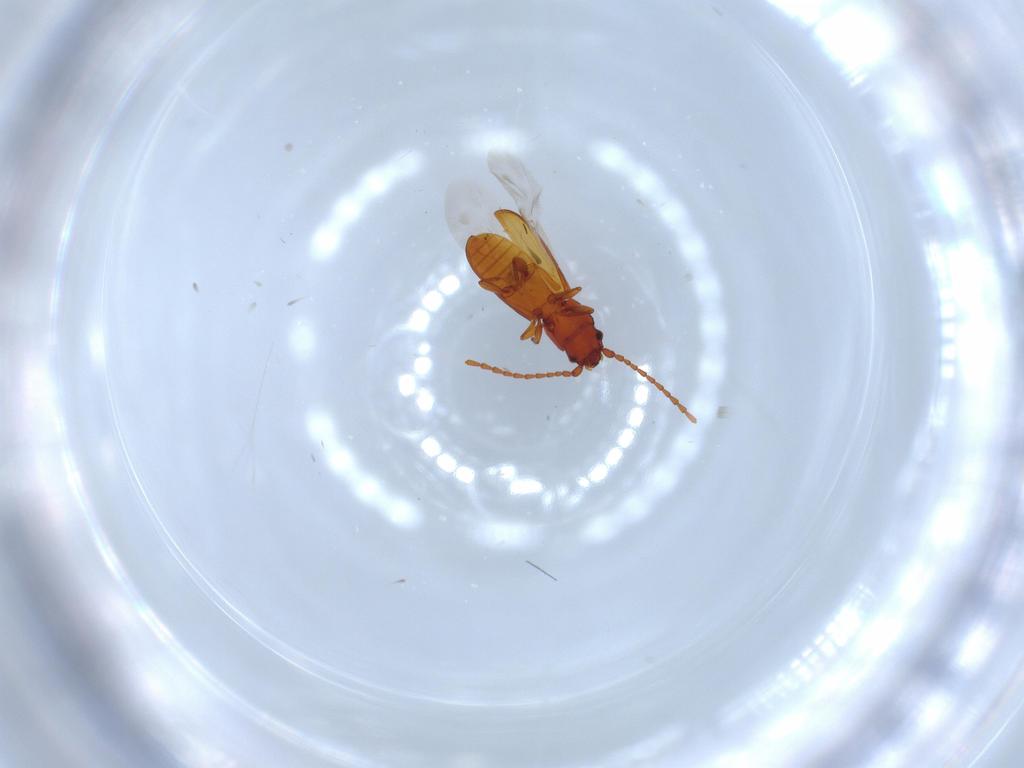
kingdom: Animalia
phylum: Arthropoda
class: Insecta
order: Coleoptera
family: Laemophloeidae
